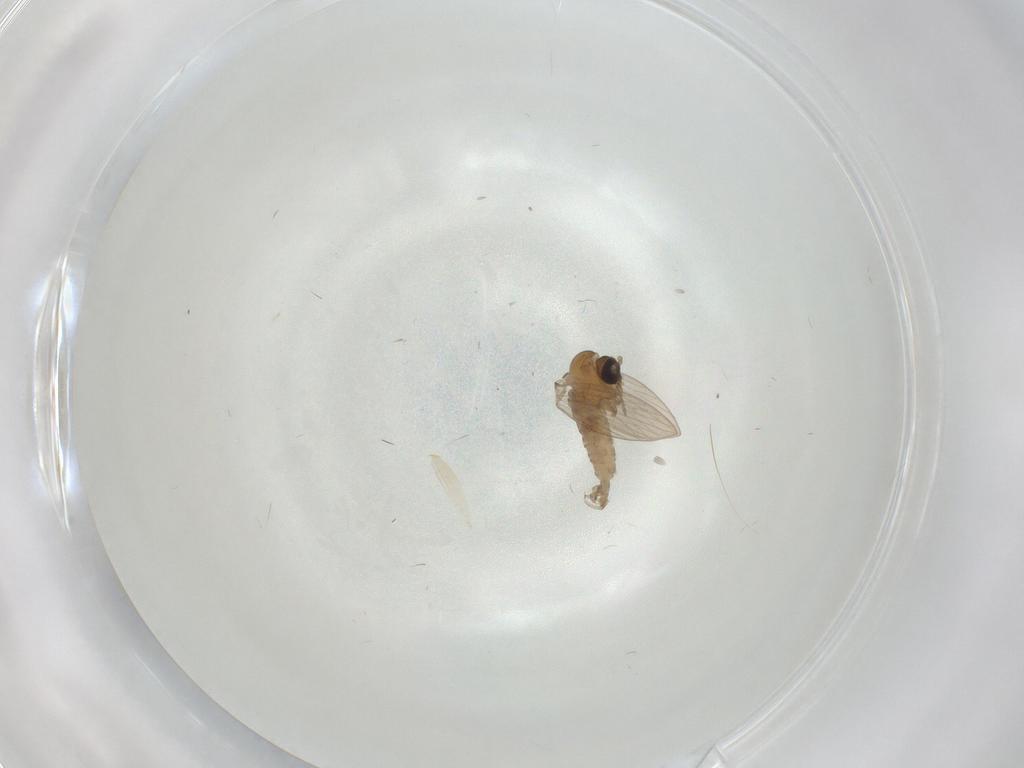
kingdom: Animalia
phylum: Arthropoda
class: Insecta
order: Diptera
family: Psychodidae
